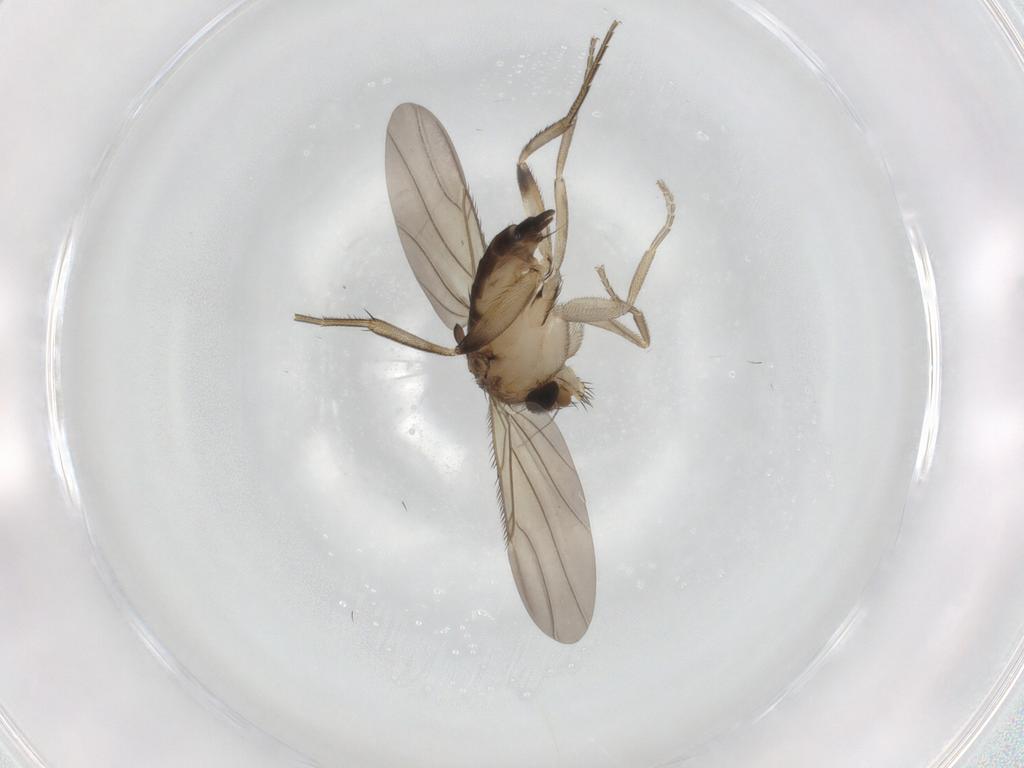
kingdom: Animalia
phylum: Arthropoda
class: Insecta
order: Diptera
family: Phoridae
